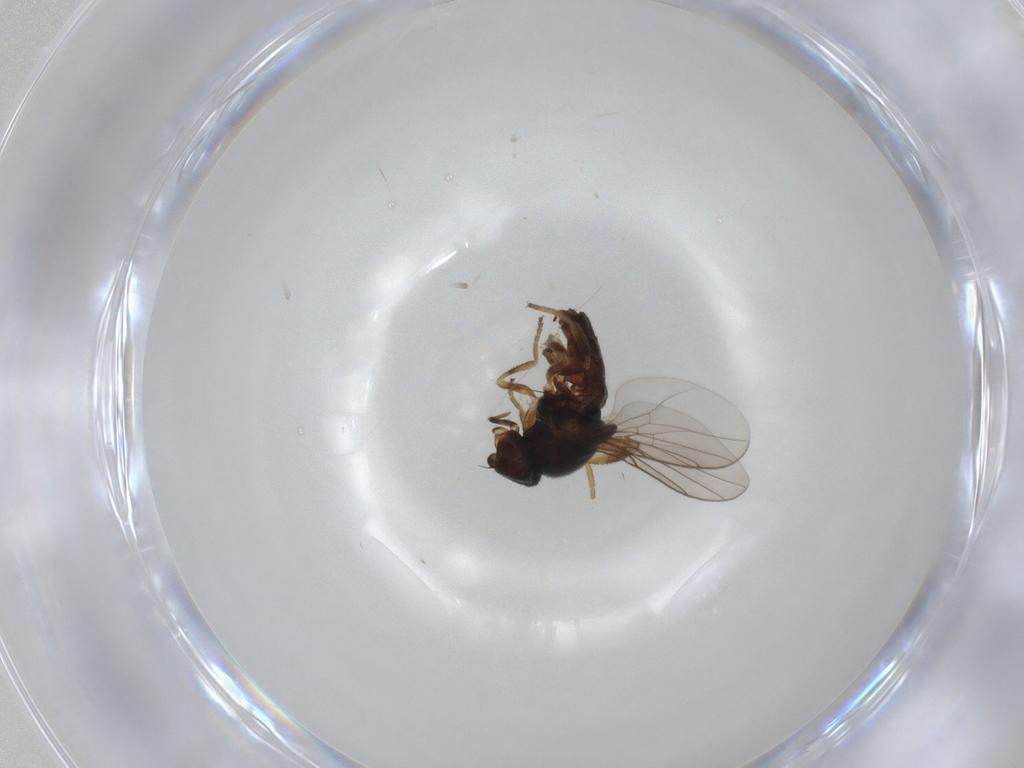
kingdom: Animalia
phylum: Arthropoda
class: Insecta
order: Diptera
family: Chloropidae
